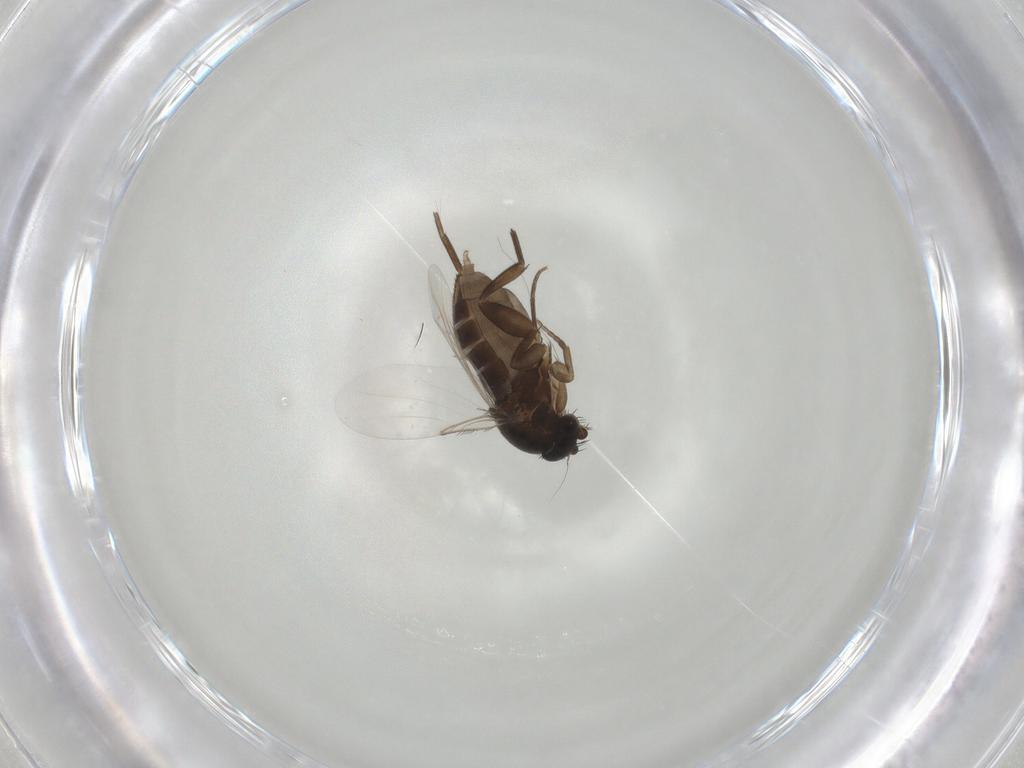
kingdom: Animalia
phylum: Arthropoda
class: Insecta
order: Diptera
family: Phoridae
